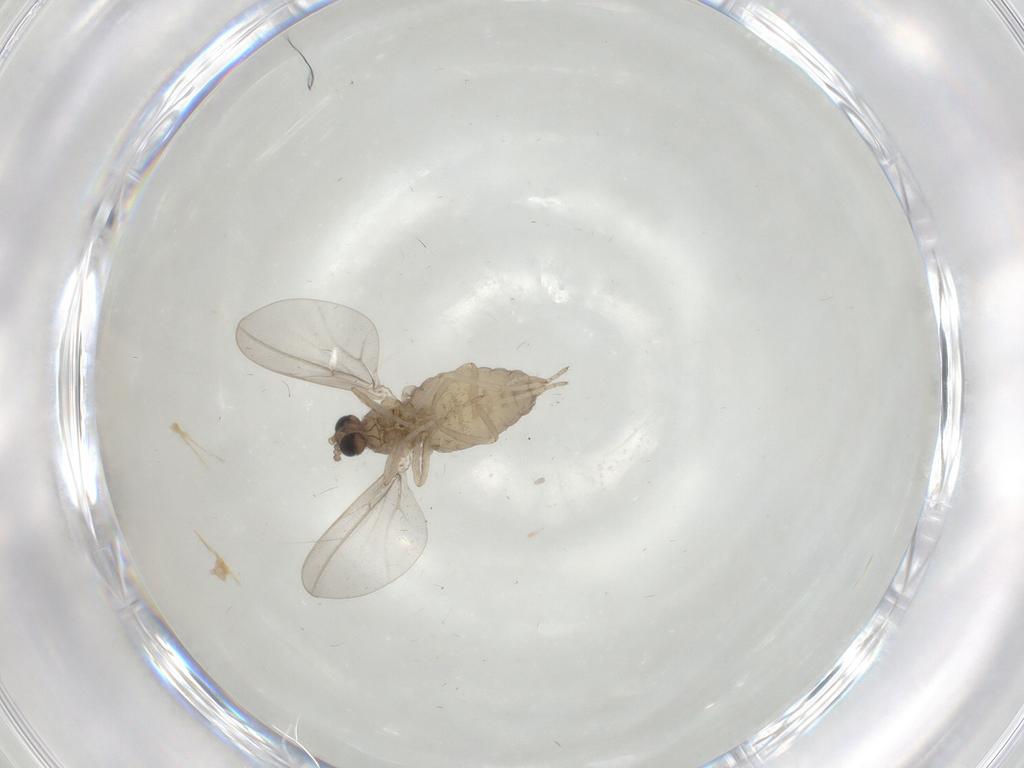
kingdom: Animalia
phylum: Arthropoda
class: Insecta
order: Diptera
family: Cecidomyiidae
